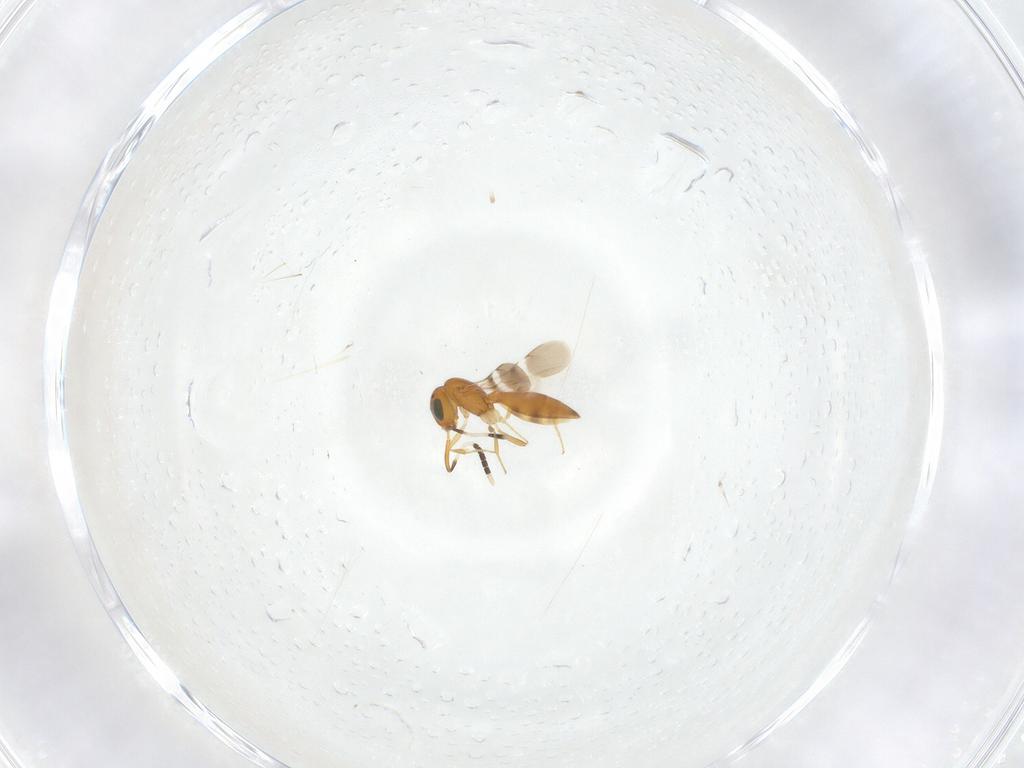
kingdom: Animalia
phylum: Arthropoda
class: Insecta
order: Hymenoptera
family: Scelionidae
